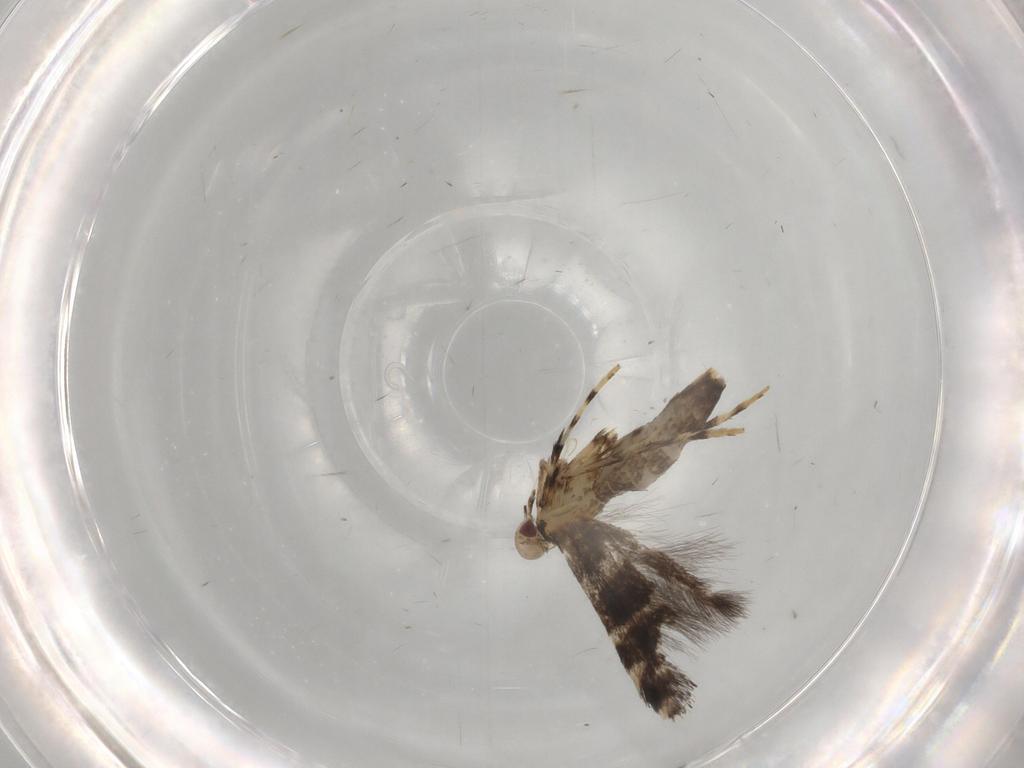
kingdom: Animalia
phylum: Arthropoda
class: Insecta
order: Lepidoptera
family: Gracillariidae
